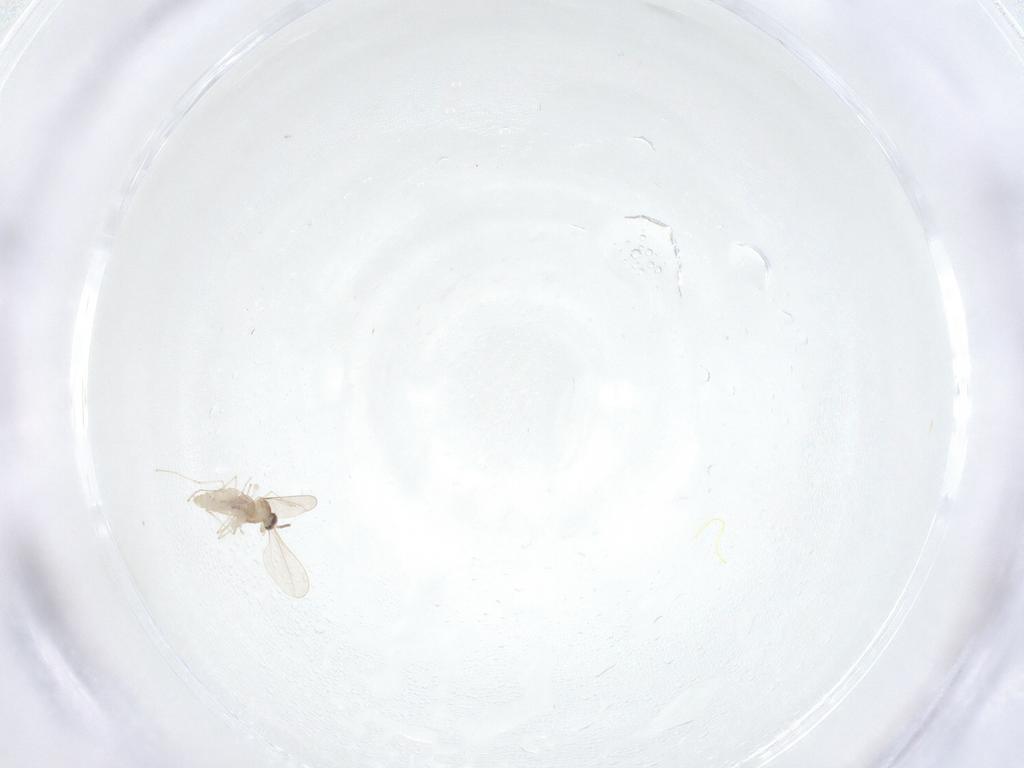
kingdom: Animalia
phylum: Arthropoda
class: Insecta
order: Diptera
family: Cecidomyiidae
